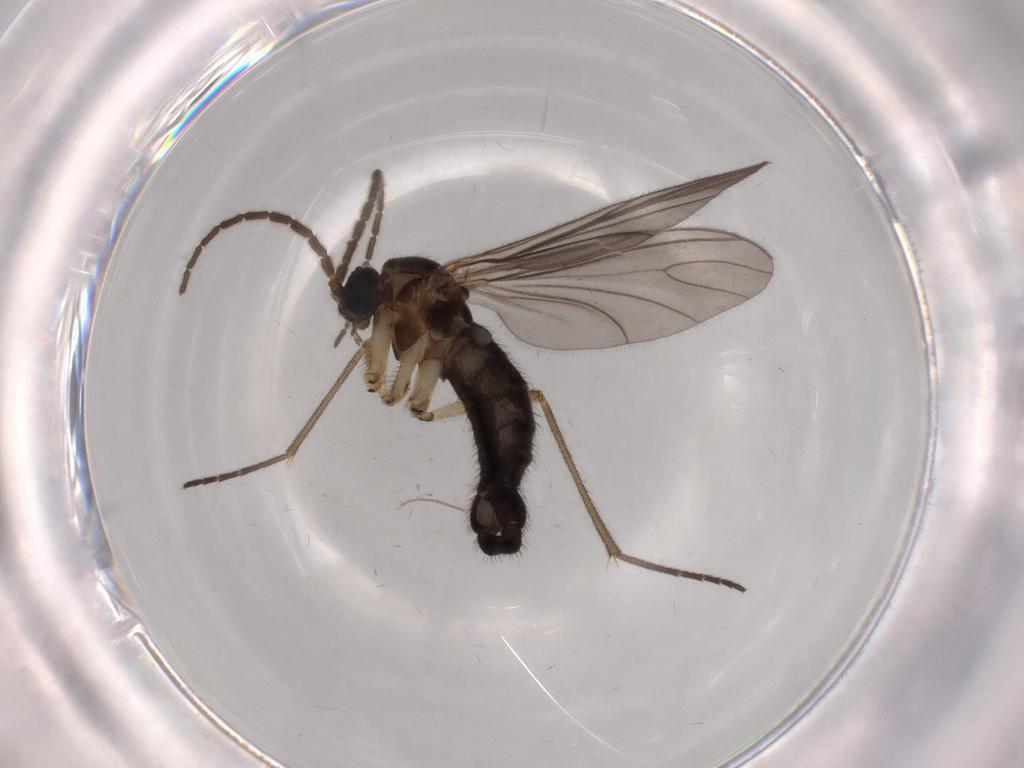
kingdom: Animalia
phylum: Arthropoda
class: Insecta
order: Diptera
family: Sciaridae
